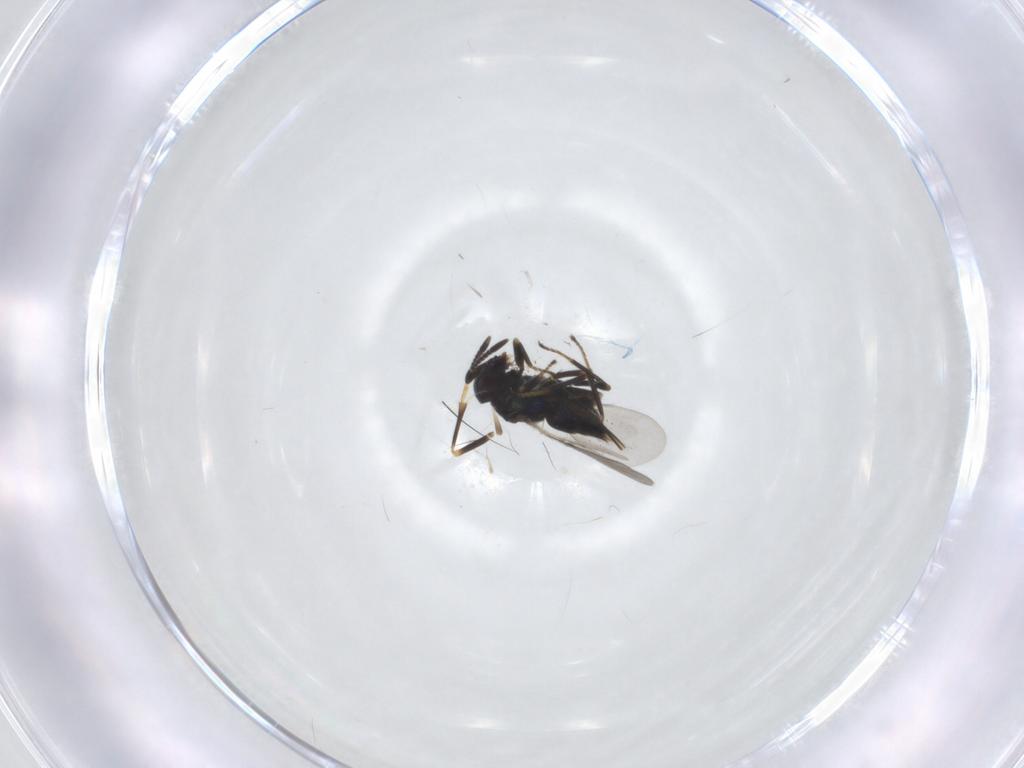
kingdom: Animalia
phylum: Arthropoda
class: Insecta
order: Hymenoptera
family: Encyrtidae
